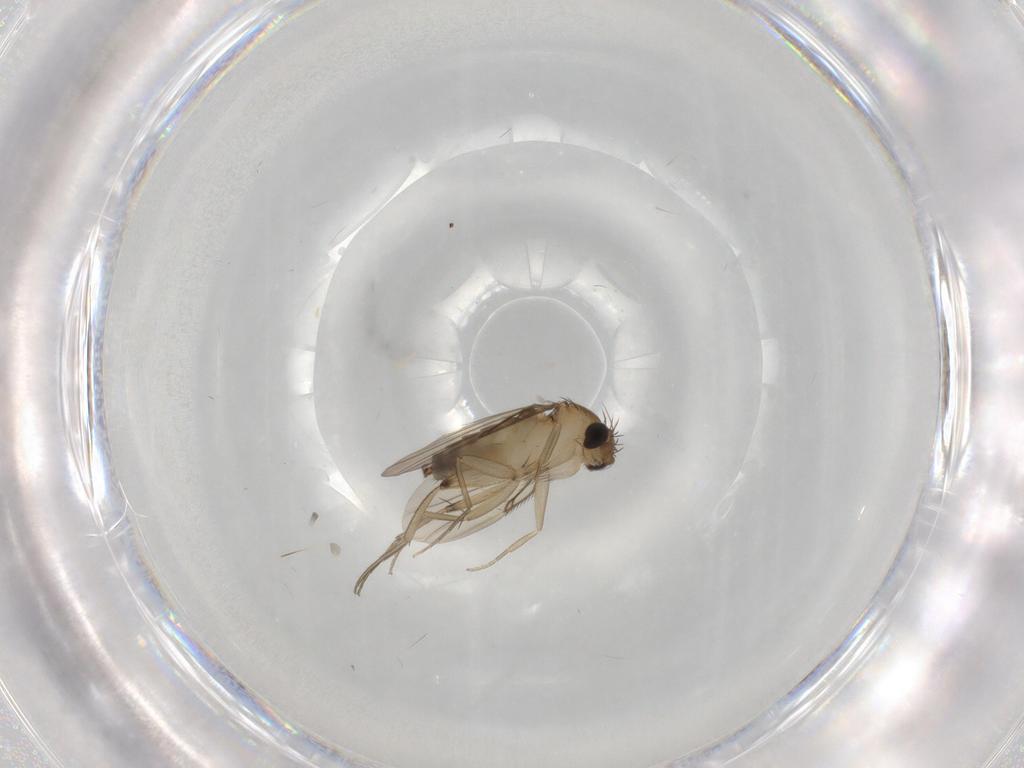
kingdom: Animalia
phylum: Arthropoda
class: Insecta
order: Diptera
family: Phoridae
